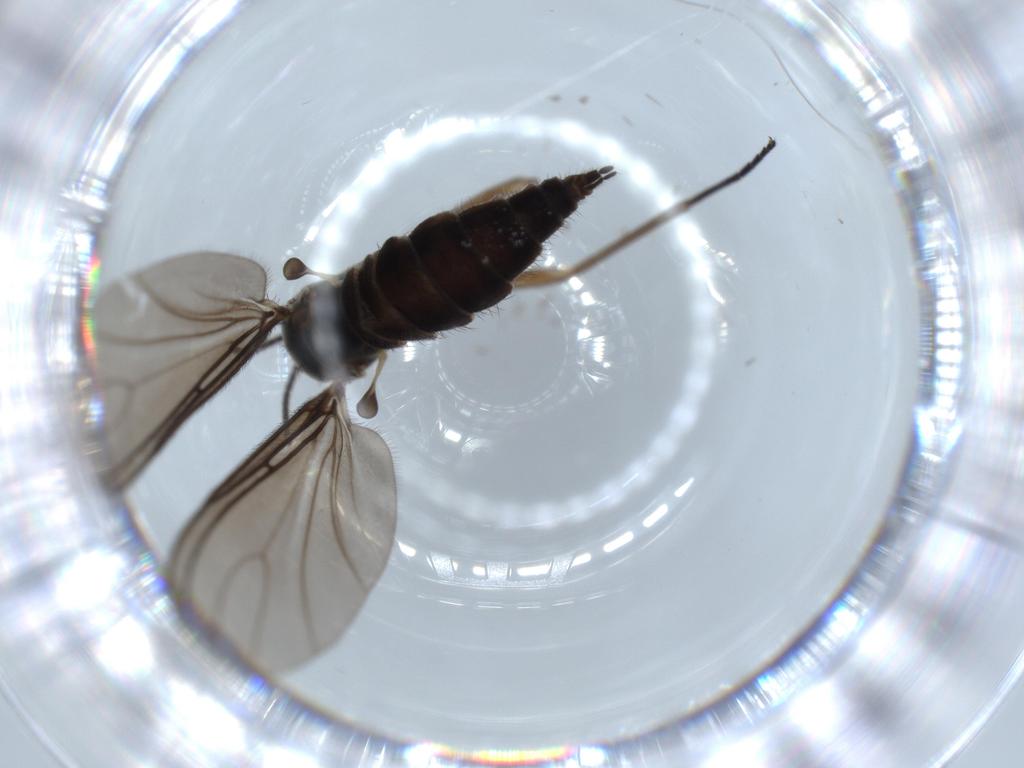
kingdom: Animalia
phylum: Arthropoda
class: Insecta
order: Diptera
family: Sciaridae
